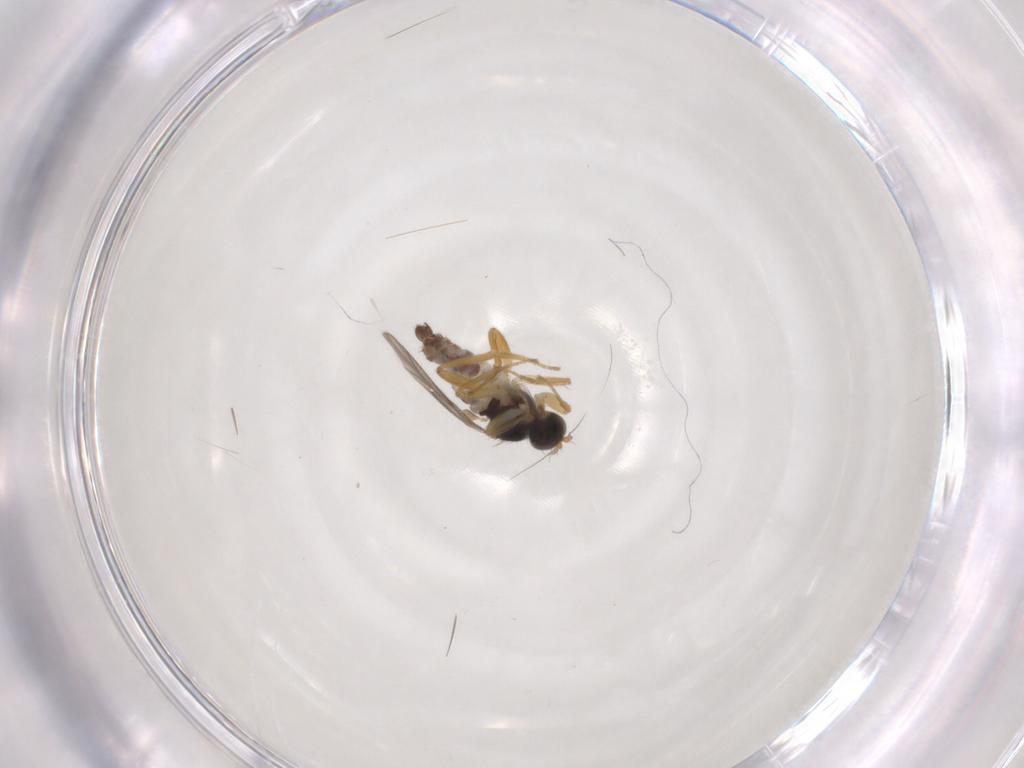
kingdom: Animalia
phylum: Arthropoda
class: Insecta
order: Diptera
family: Hybotidae
